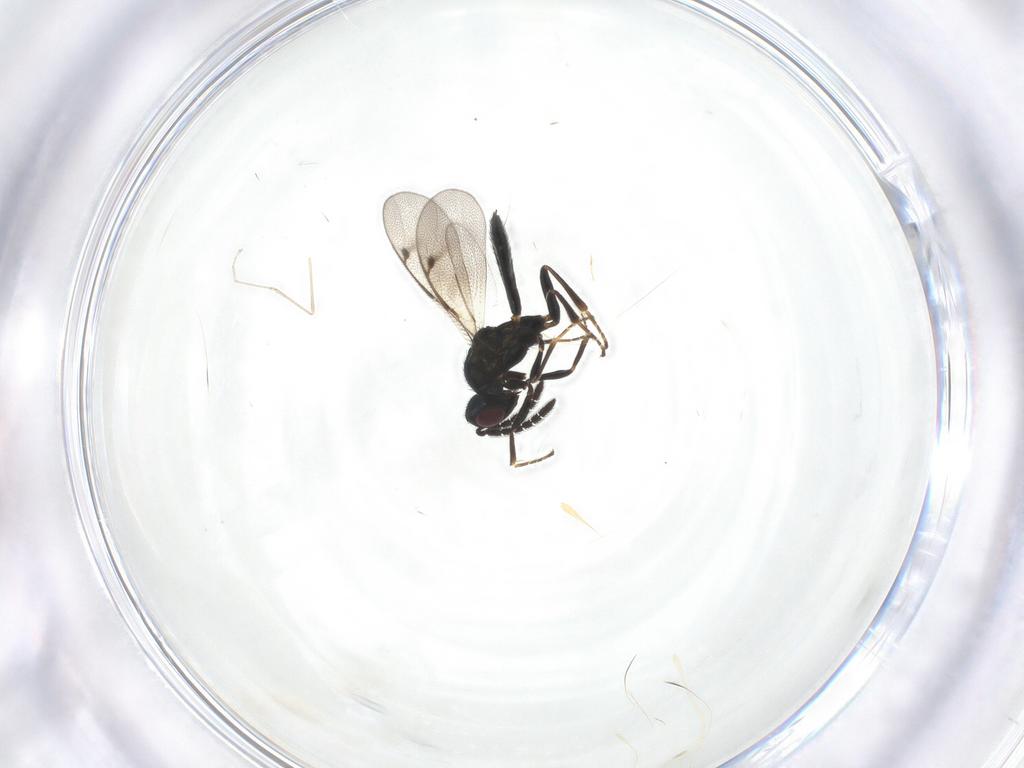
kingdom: Animalia
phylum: Arthropoda
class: Insecta
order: Hymenoptera
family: Pteromalidae
